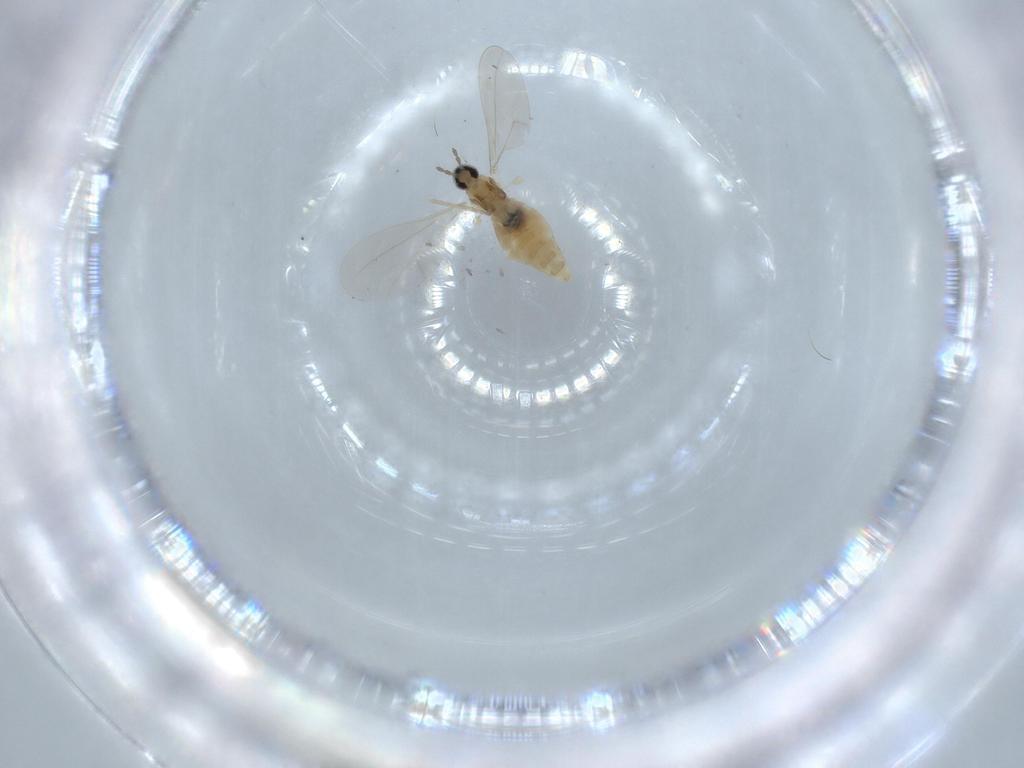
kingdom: Animalia
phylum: Arthropoda
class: Insecta
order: Diptera
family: Cecidomyiidae
